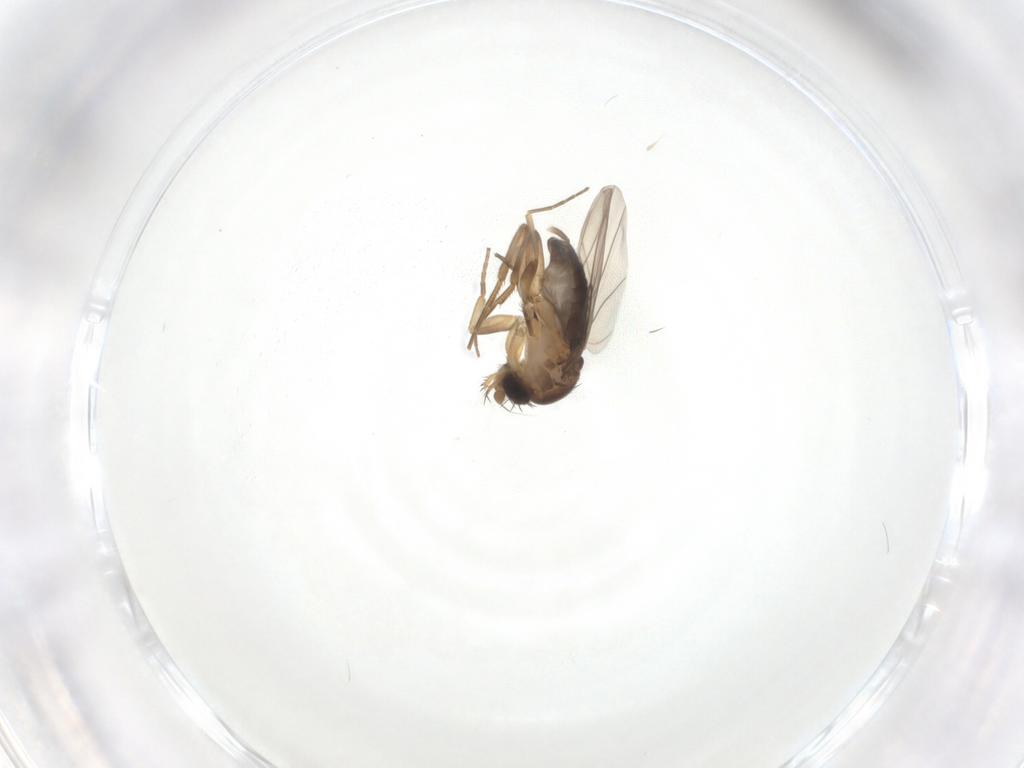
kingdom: Animalia
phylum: Arthropoda
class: Insecta
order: Diptera
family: Phoridae
